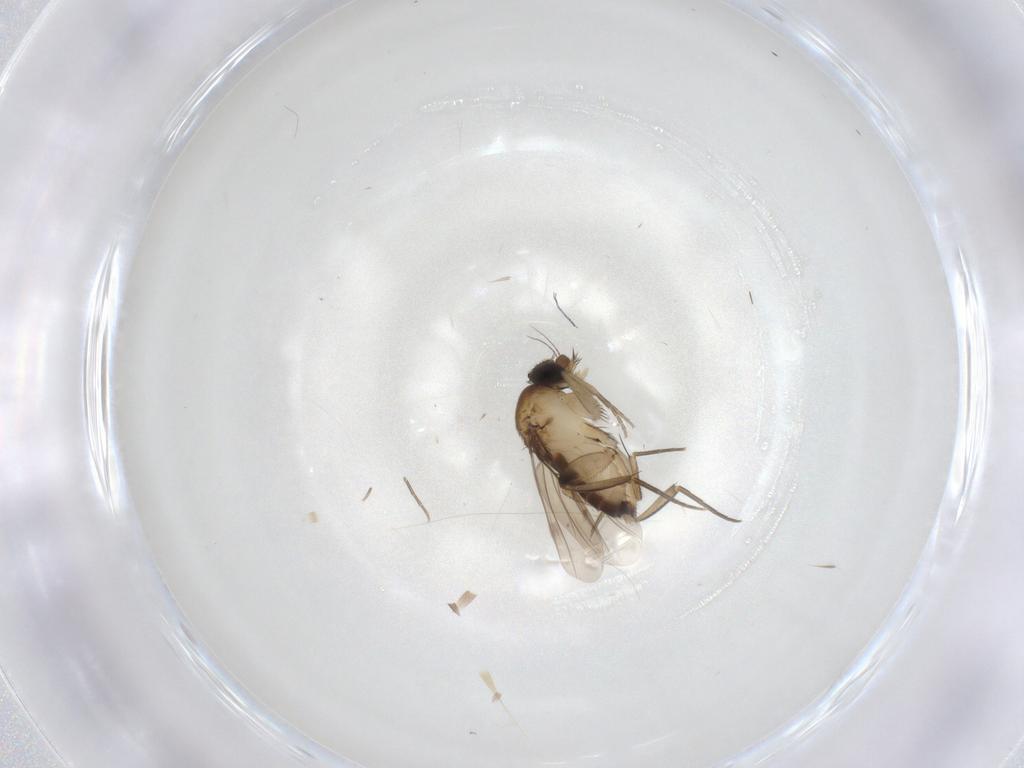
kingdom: Animalia
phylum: Arthropoda
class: Insecta
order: Diptera
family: Phoridae
